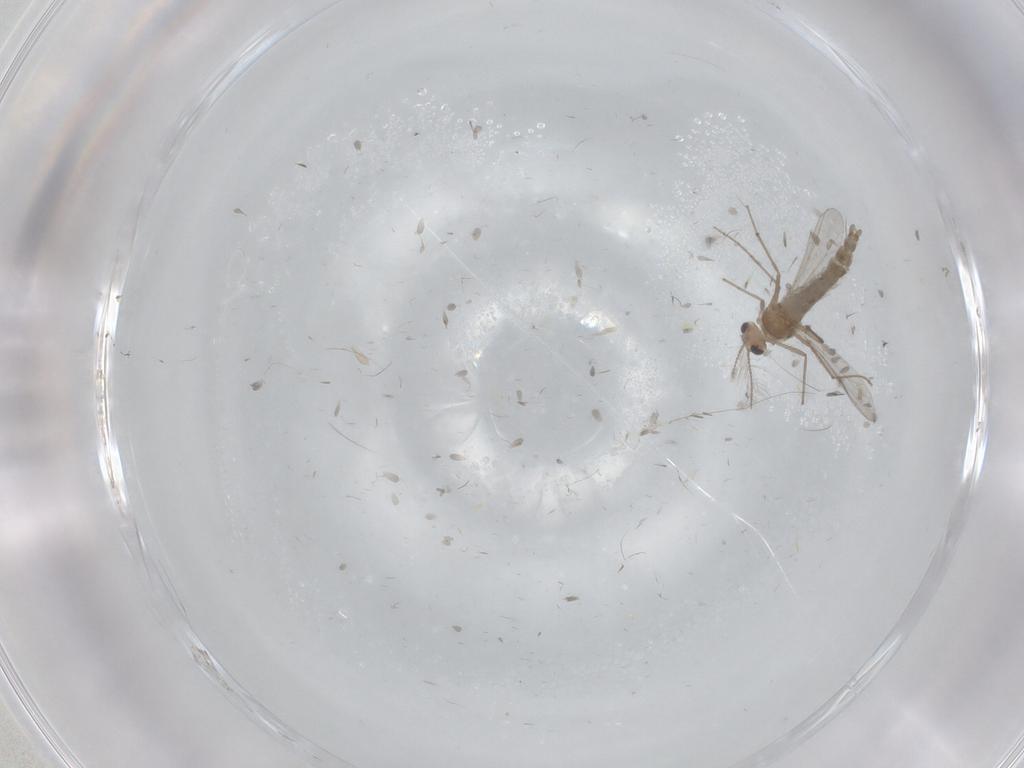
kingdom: Animalia
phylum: Arthropoda
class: Insecta
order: Diptera
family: Chironomidae
